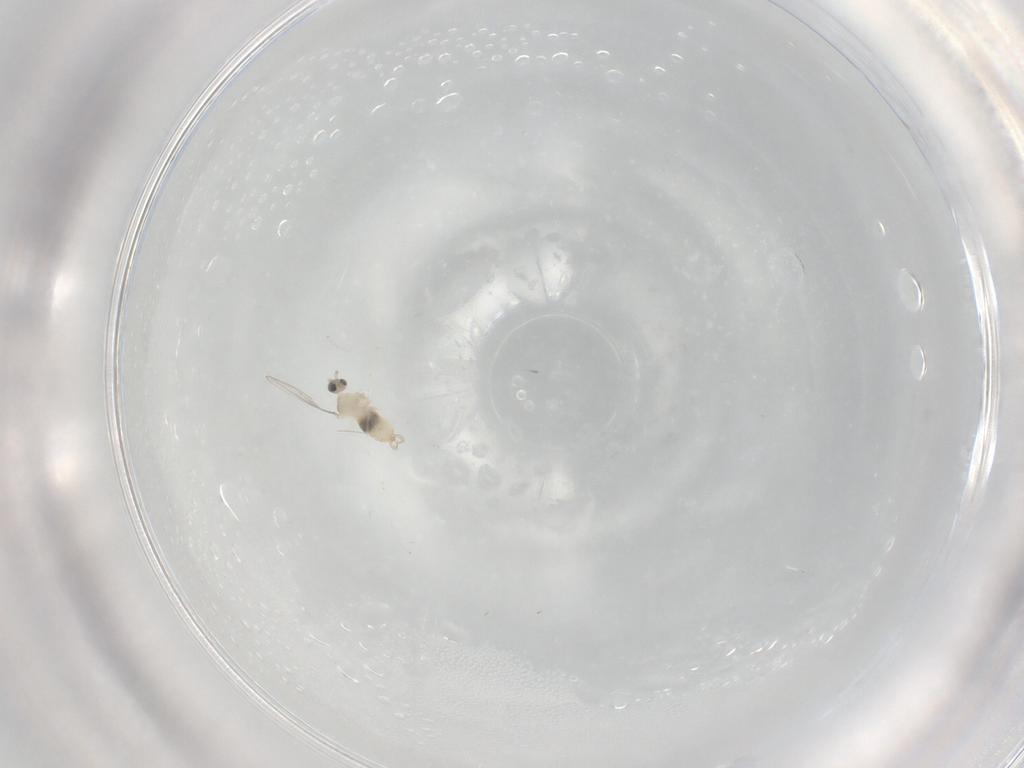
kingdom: Animalia
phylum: Arthropoda
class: Insecta
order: Diptera
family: Cecidomyiidae
